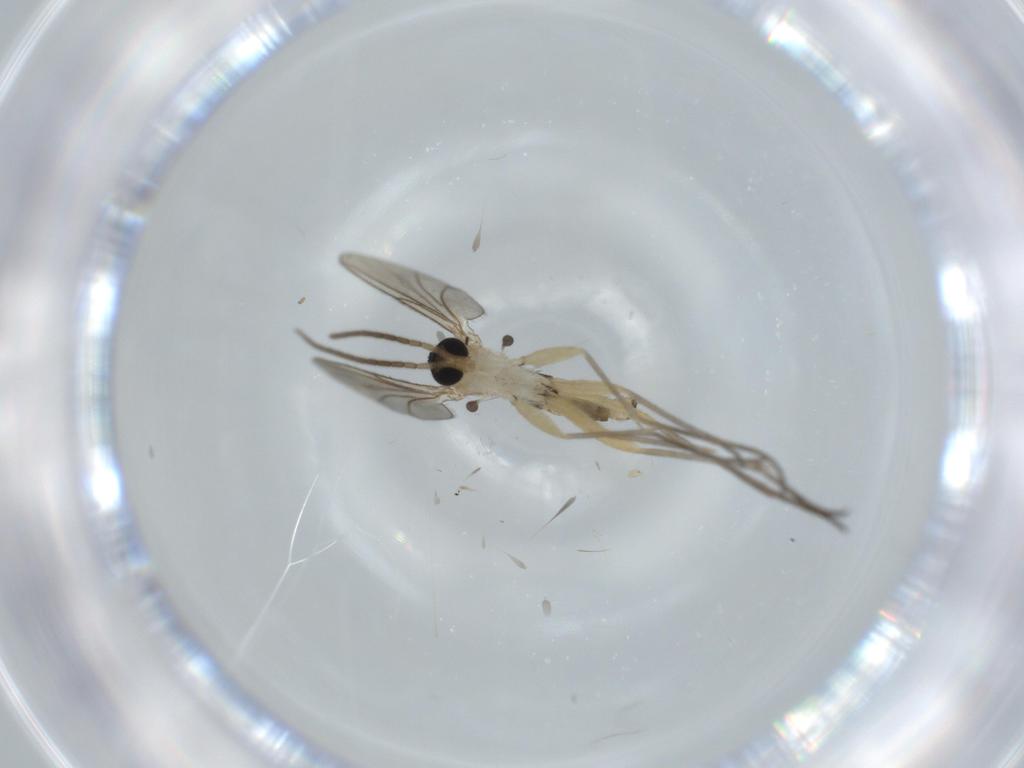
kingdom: Animalia
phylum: Arthropoda
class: Insecta
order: Diptera
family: Sciaridae
